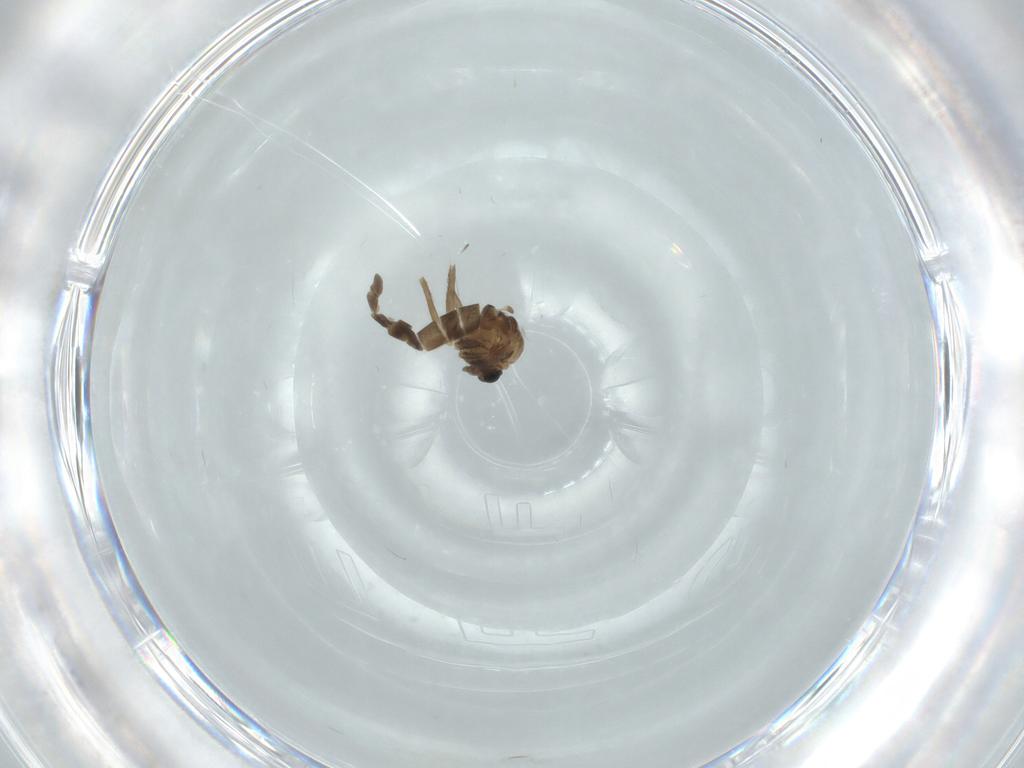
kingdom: Animalia
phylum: Arthropoda
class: Insecta
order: Diptera
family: Chironomidae
